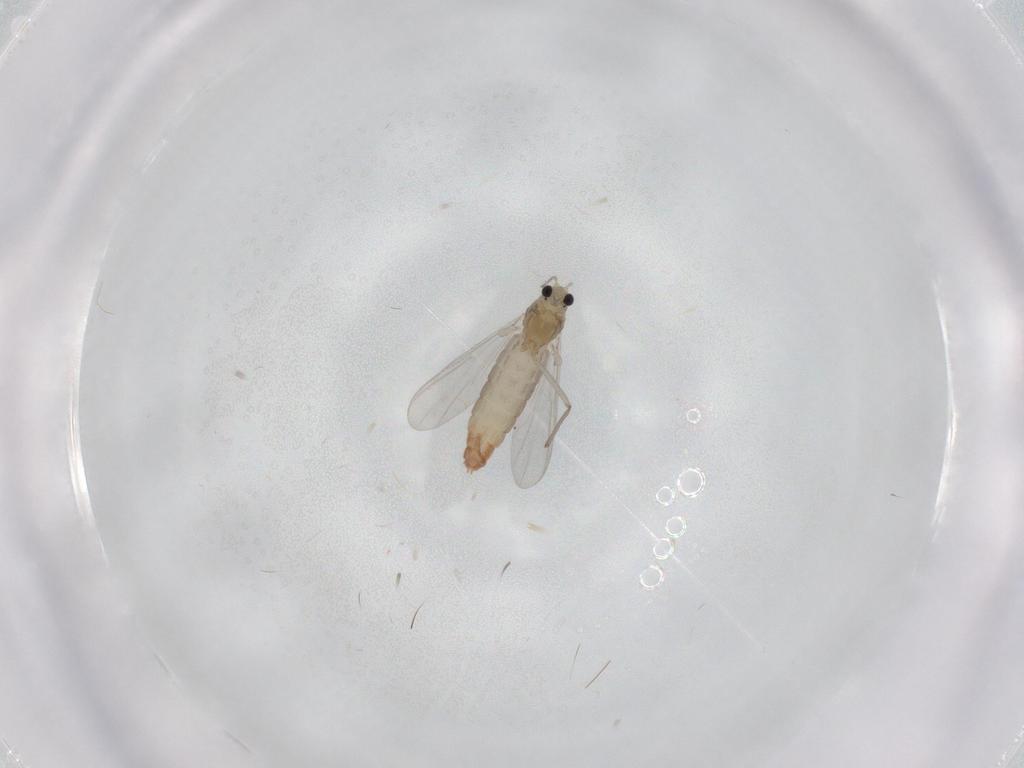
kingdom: Animalia
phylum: Arthropoda
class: Insecta
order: Diptera
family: Chironomidae
